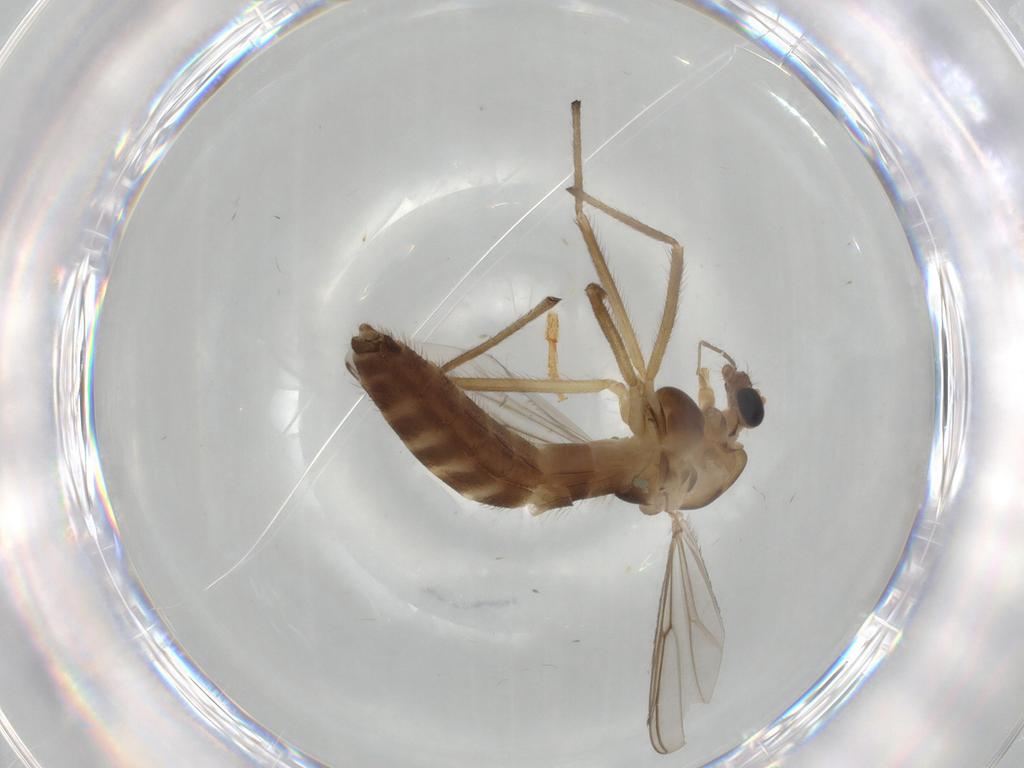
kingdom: Animalia
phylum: Arthropoda
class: Insecta
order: Diptera
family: Chironomidae
